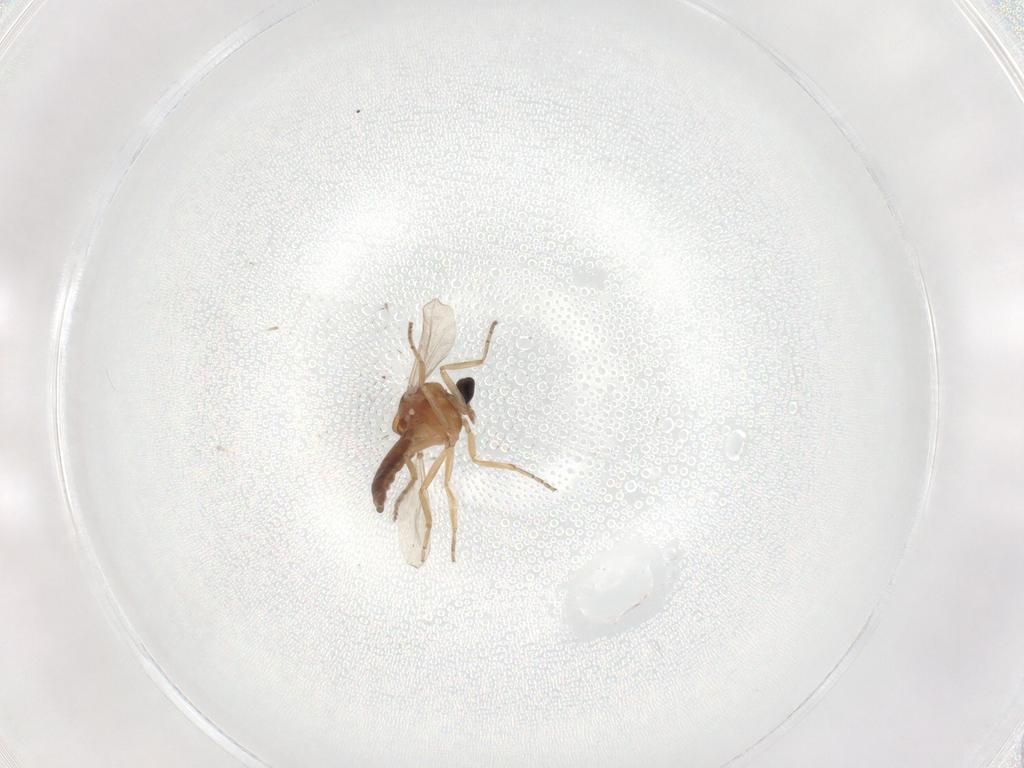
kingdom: Animalia
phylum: Arthropoda
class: Insecta
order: Diptera
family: Ceratopogonidae
